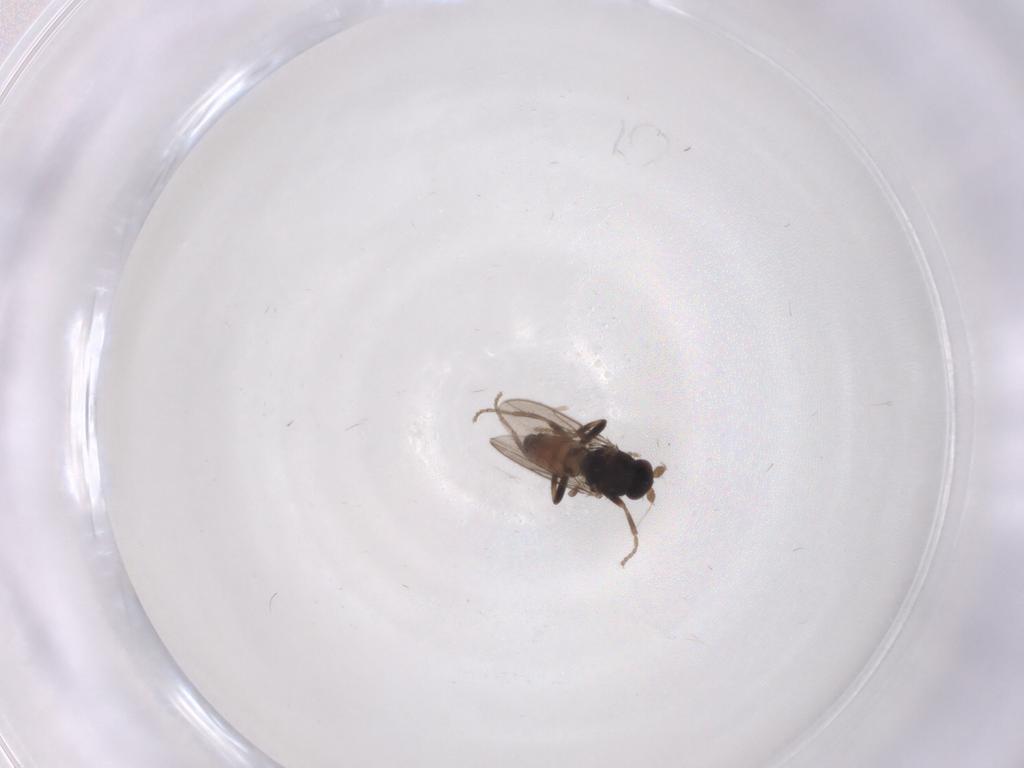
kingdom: Animalia
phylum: Arthropoda
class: Insecta
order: Diptera
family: Sphaeroceridae
